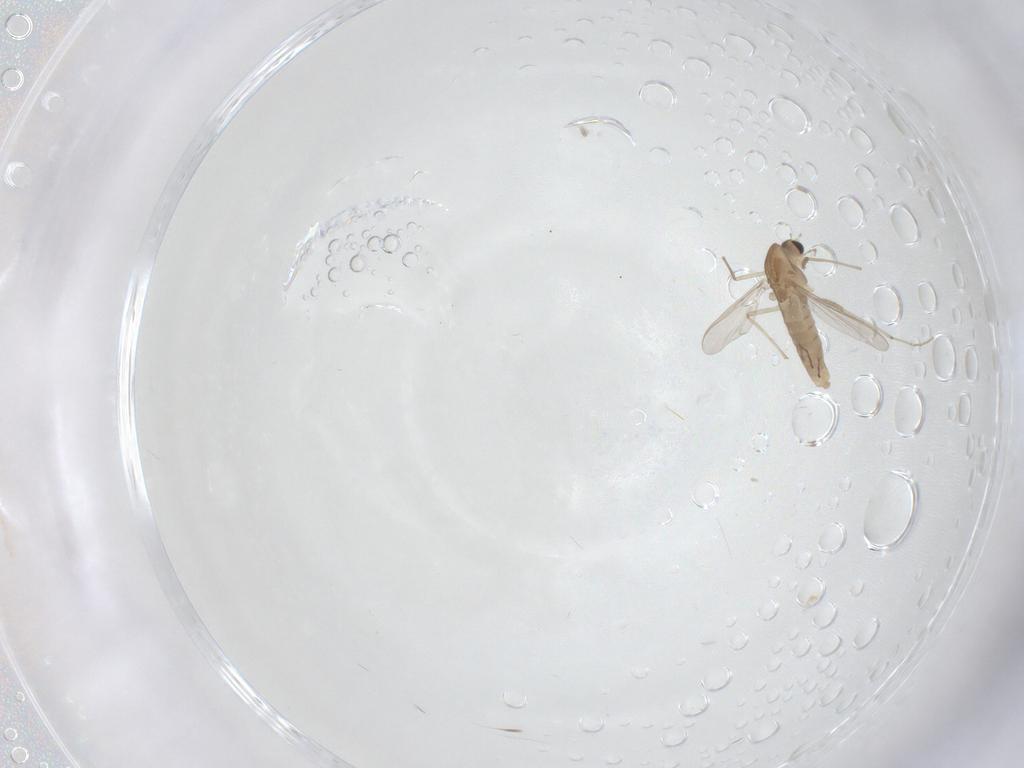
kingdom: Animalia
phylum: Arthropoda
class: Insecta
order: Diptera
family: Chironomidae
